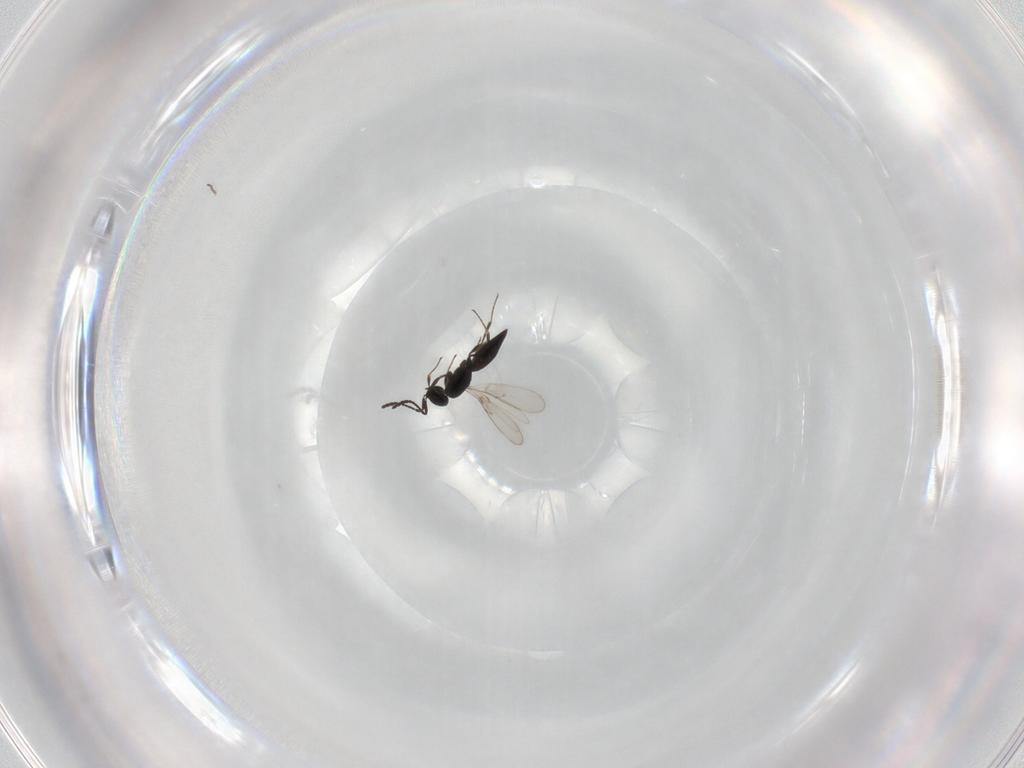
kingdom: Animalia
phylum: Arthropoda
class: Insecta
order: Hymenoptera
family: Scelionidae
